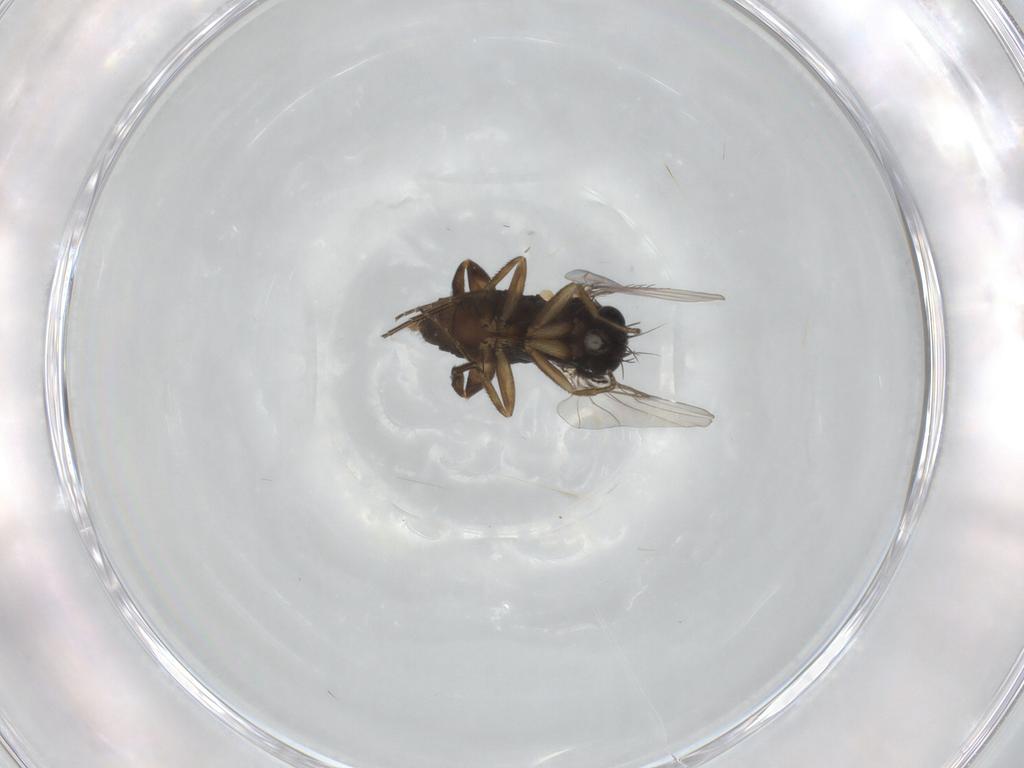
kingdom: Animalia
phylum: Arthropoda
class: Insecta
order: Diptera
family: Phoridae
